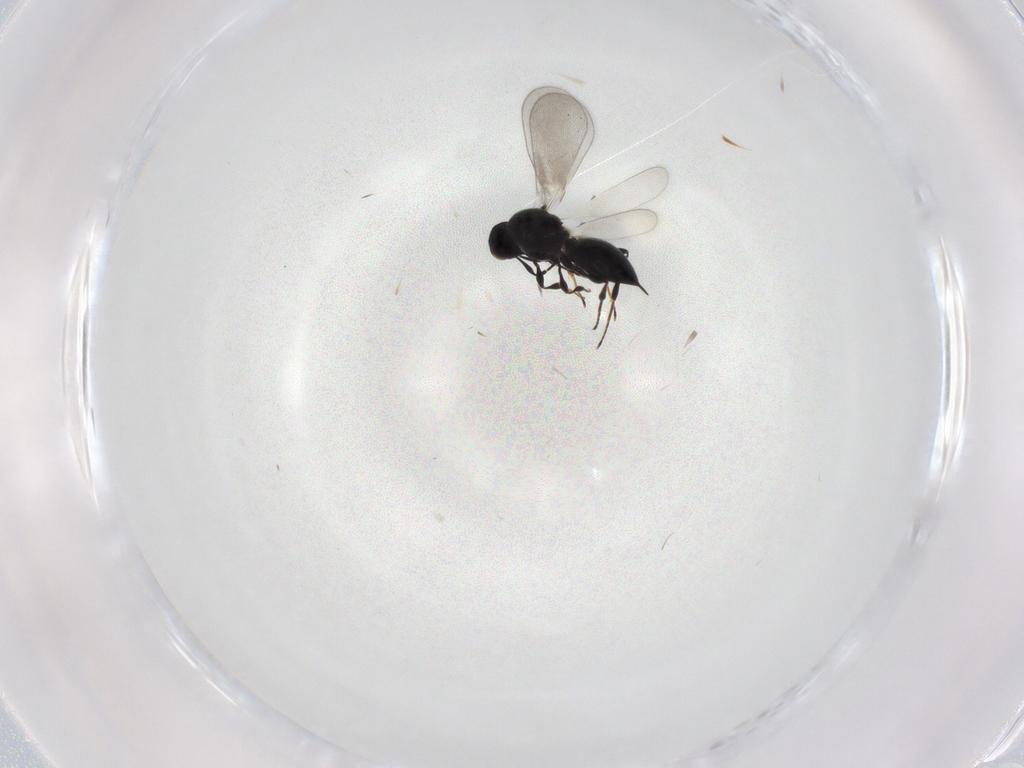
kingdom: Animalia
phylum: Arthropoda
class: Insecta
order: Hymenoptera
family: Platygastridae
